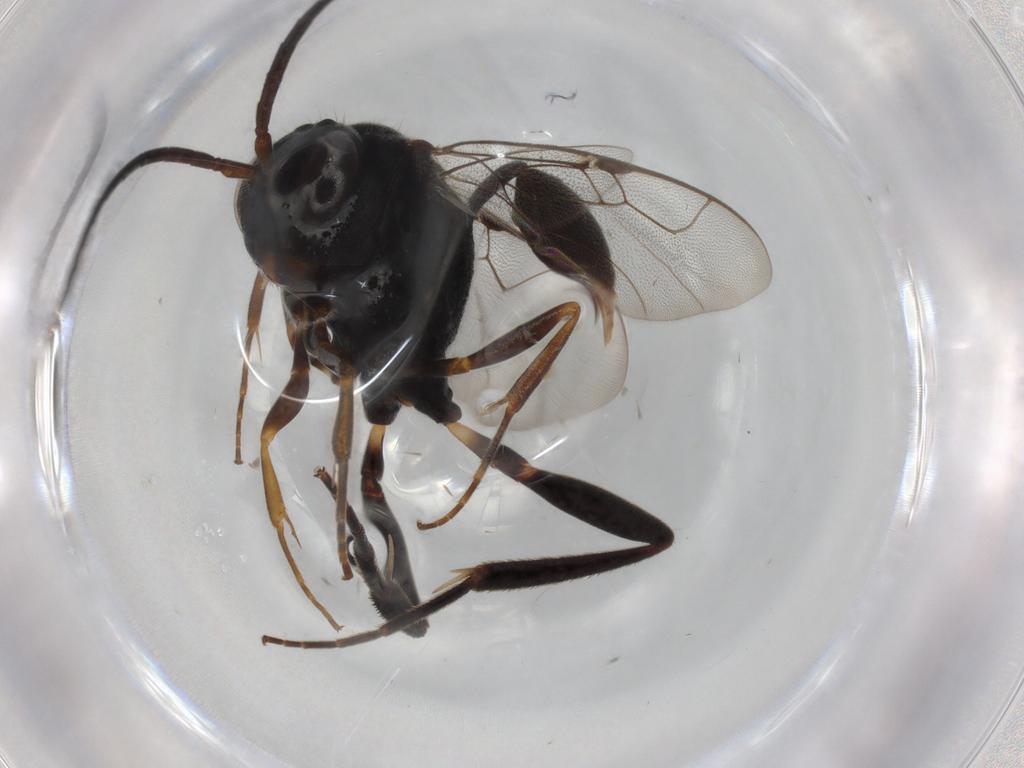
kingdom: Animalia
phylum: Arthropoda
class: Insecta
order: Hymenoptera
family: Evaniidae
